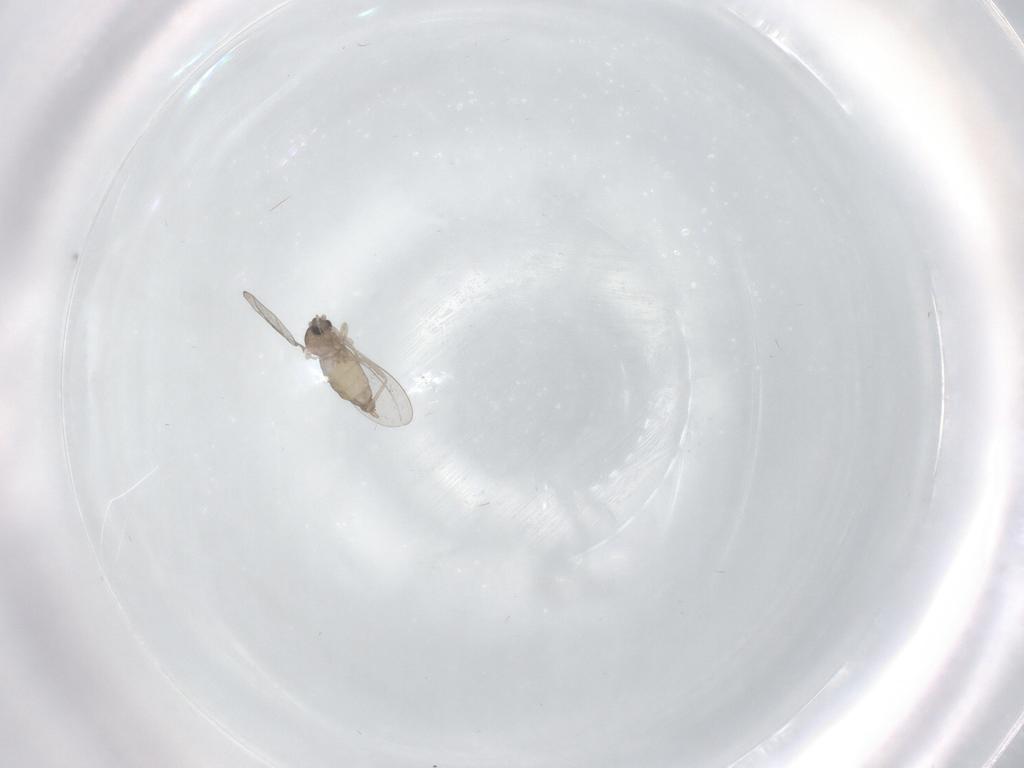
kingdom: Animalia
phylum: Arthropoda
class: Insecta
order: Diptera
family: Cecidomyiidae
